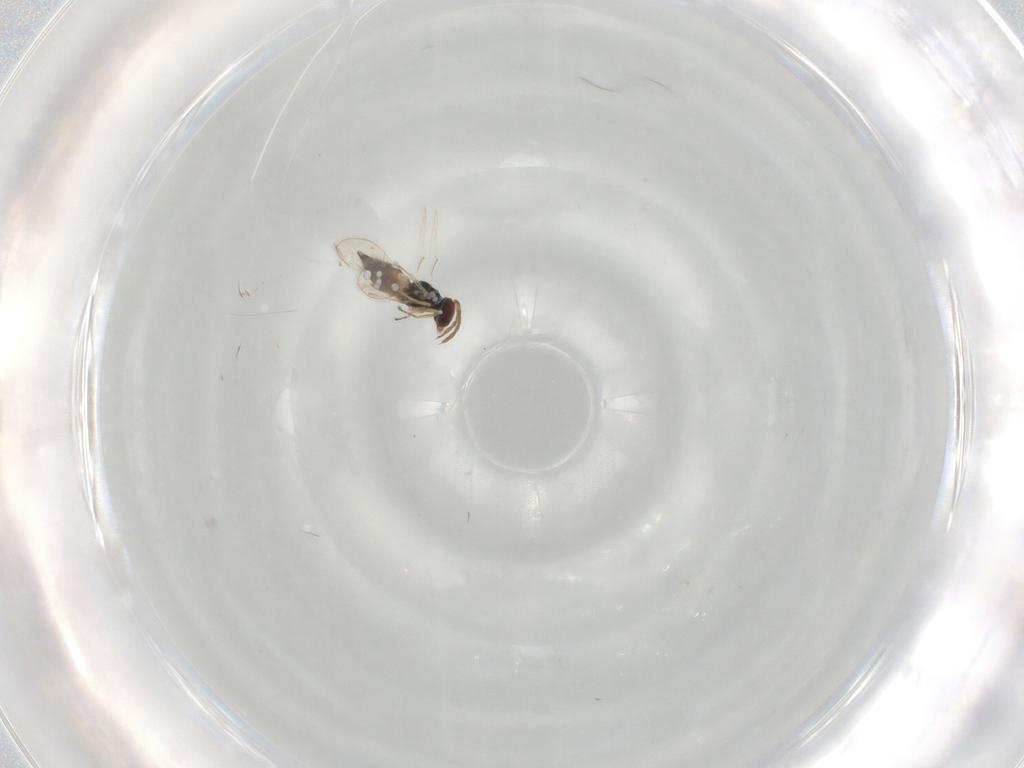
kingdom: Animalia
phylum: Arthropoda
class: Insecta
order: Hymenoptera
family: Eulophidae
